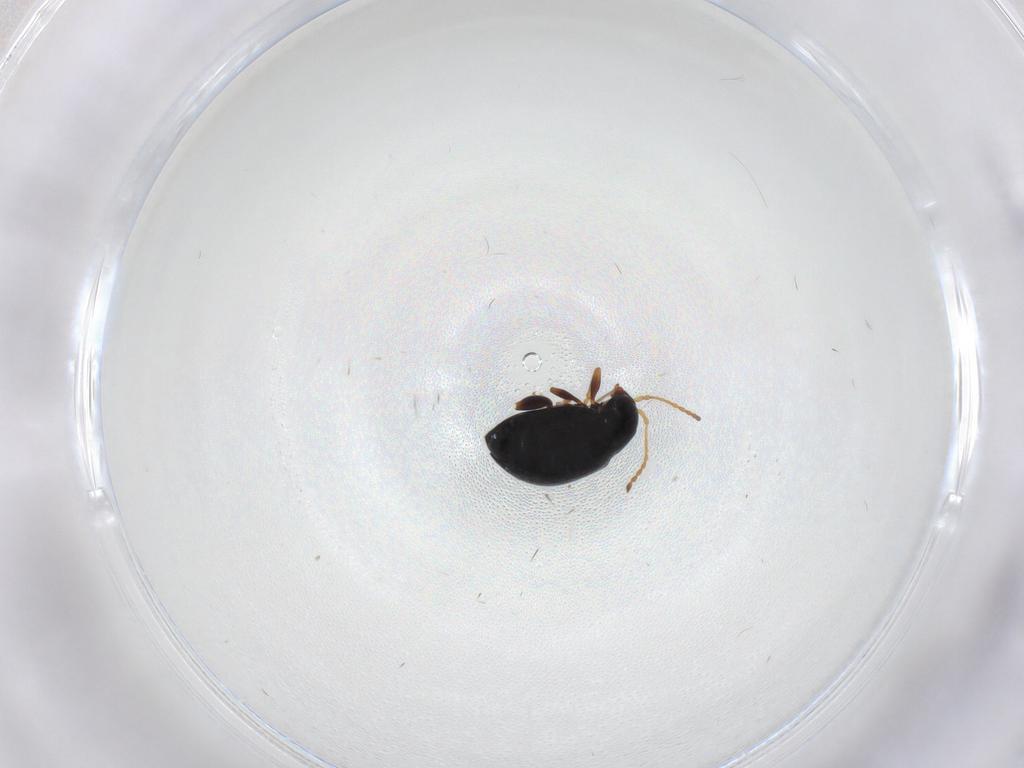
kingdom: Animalia
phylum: Arthropoda
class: Insecta
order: Coleoptera
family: Chrysomelidae
